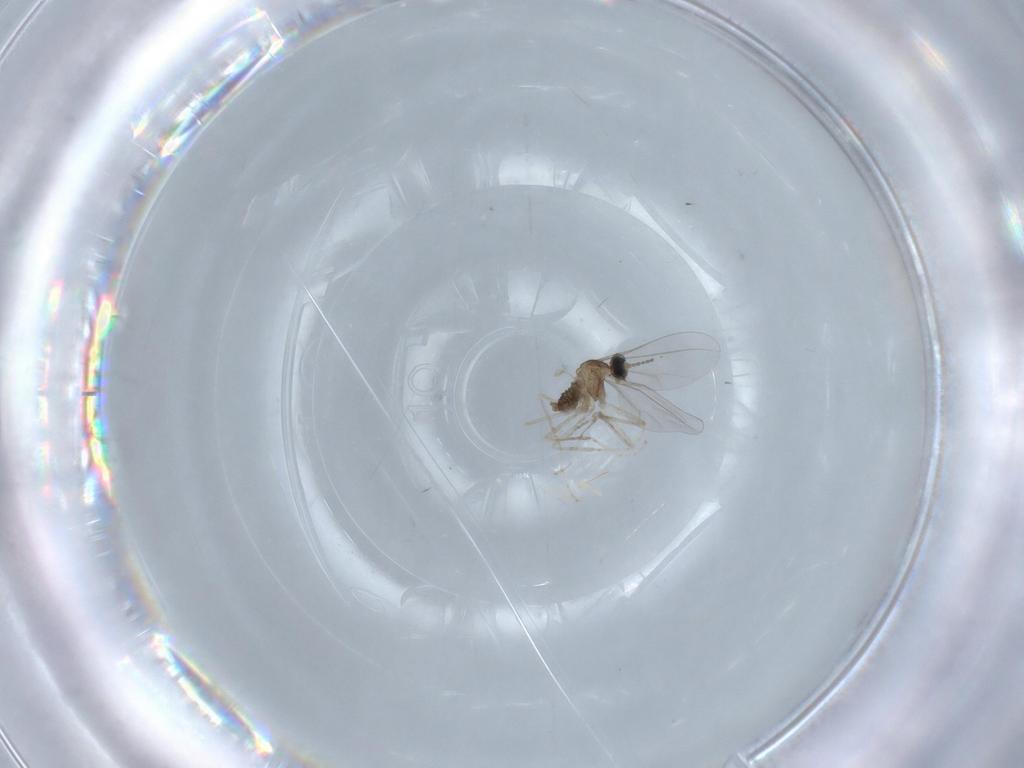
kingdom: Animalia
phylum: Arthropoda
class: Insecta
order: Diptera
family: Cecidomyiidae
